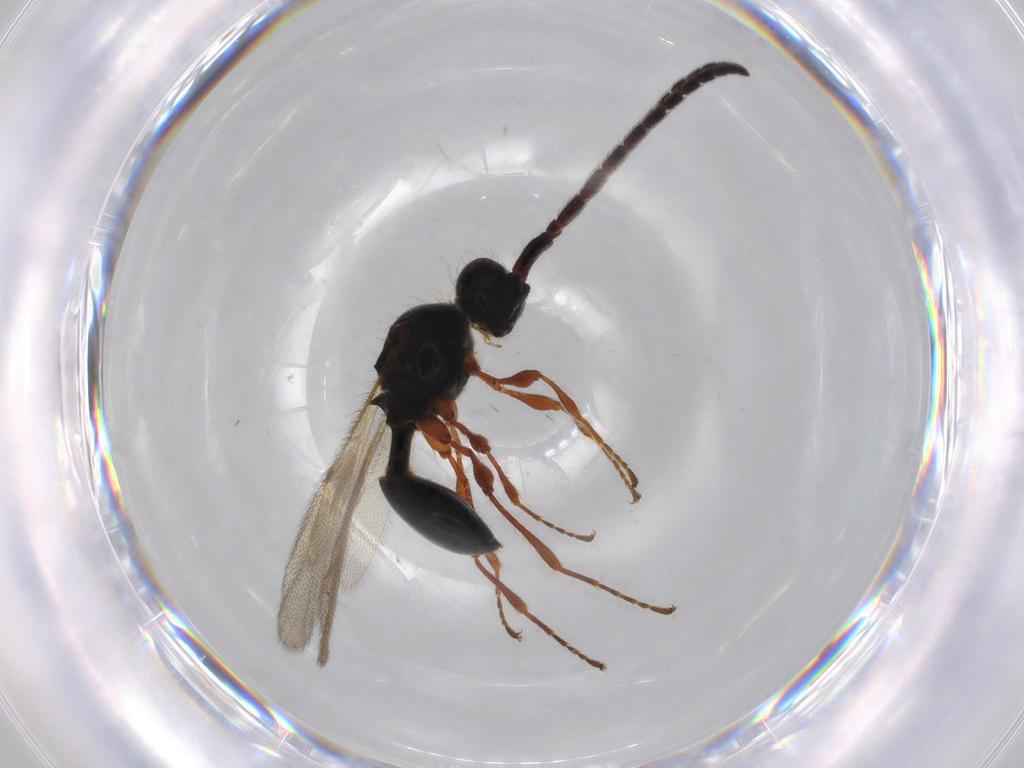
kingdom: Animalia
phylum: Arthropoda
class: Insecta
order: Hymenoptera
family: Diapriidae
